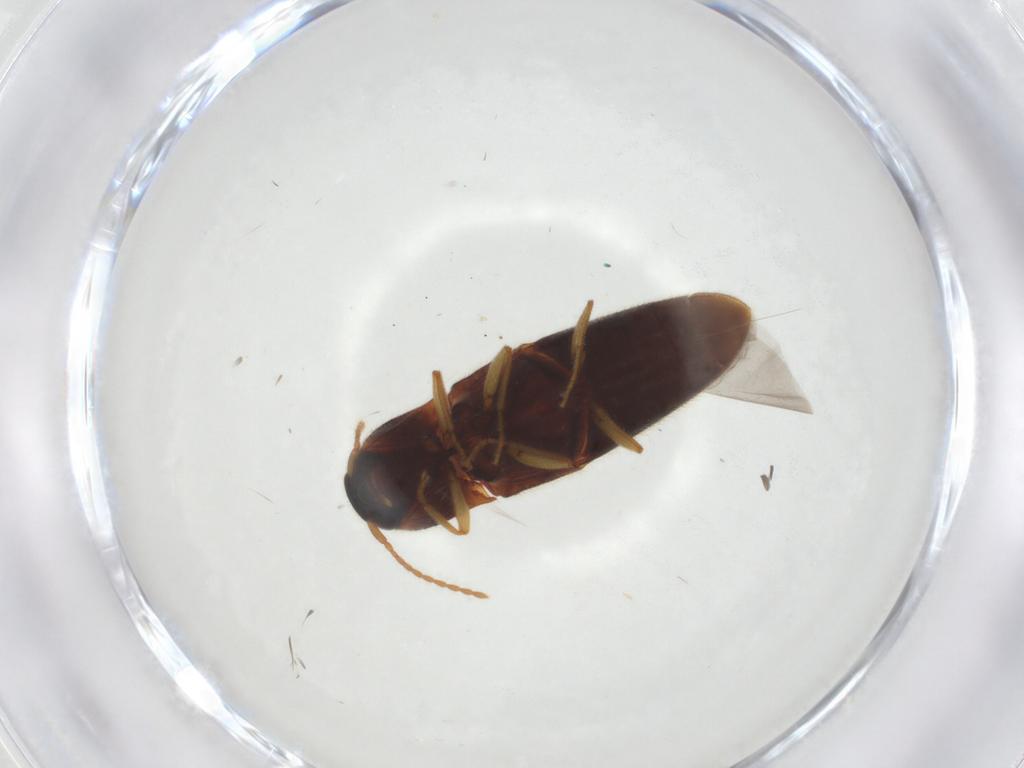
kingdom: Animalia
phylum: Arthropoda
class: Insecta
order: Coleoptera
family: Elateridae
